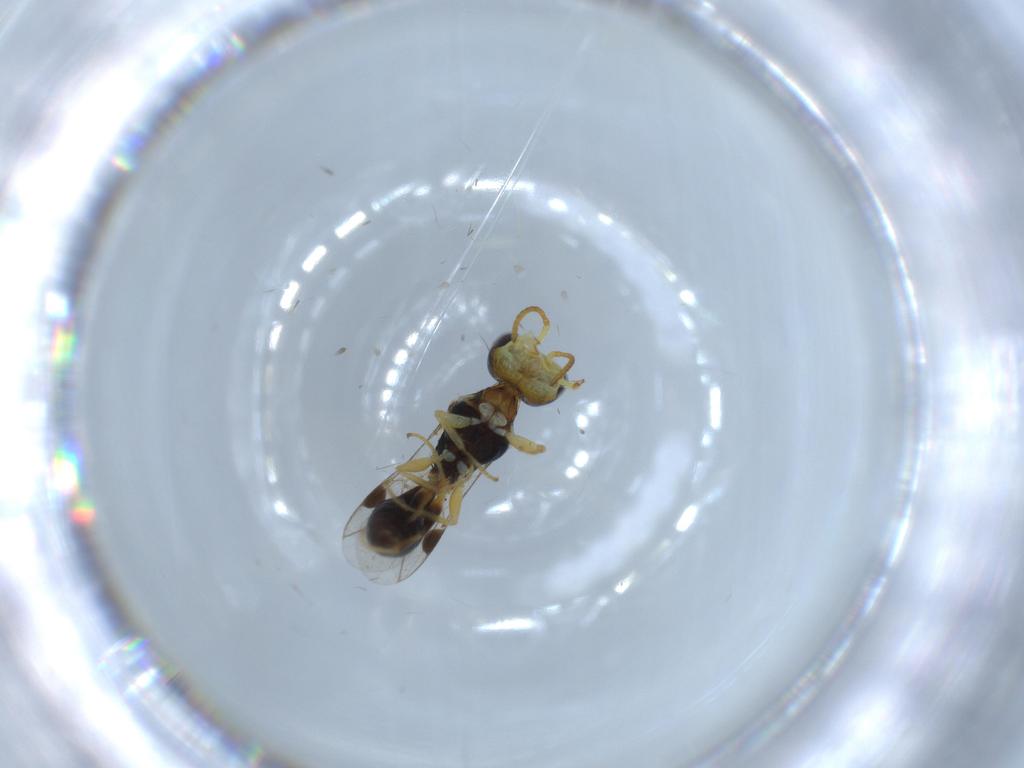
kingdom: Animalia
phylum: Arthropoda
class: Insecta
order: Hymenoptera
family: Pemphredonidae
